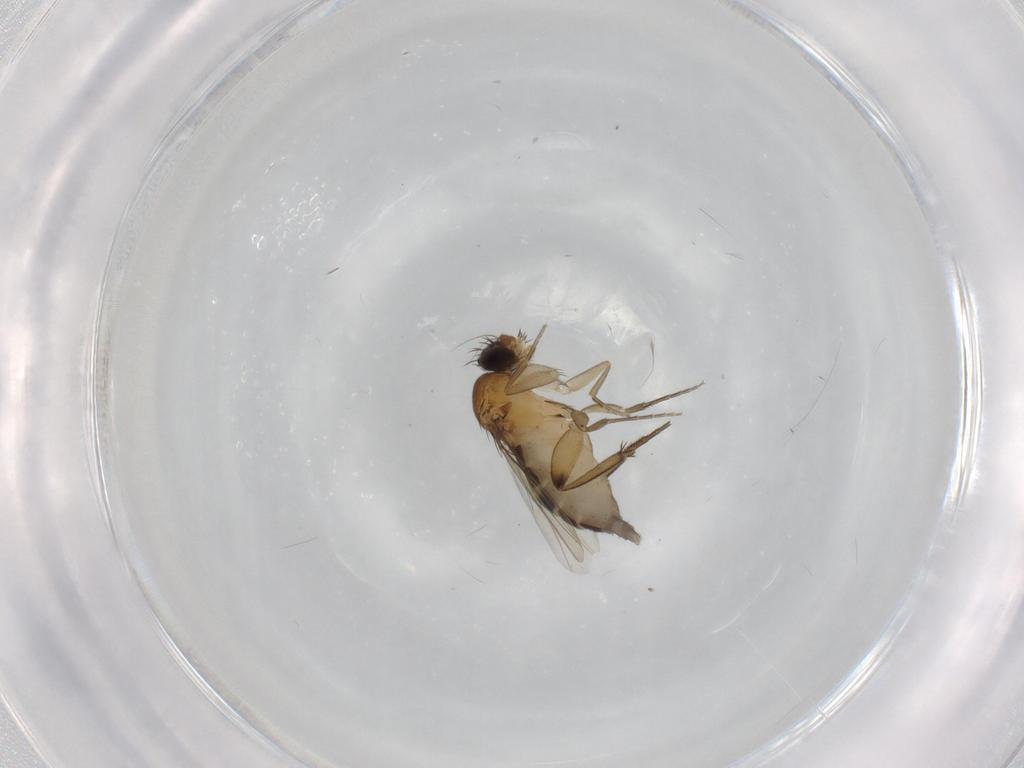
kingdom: Animalia
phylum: Arthropoda
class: Insecta
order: Diptera
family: Phoridae
